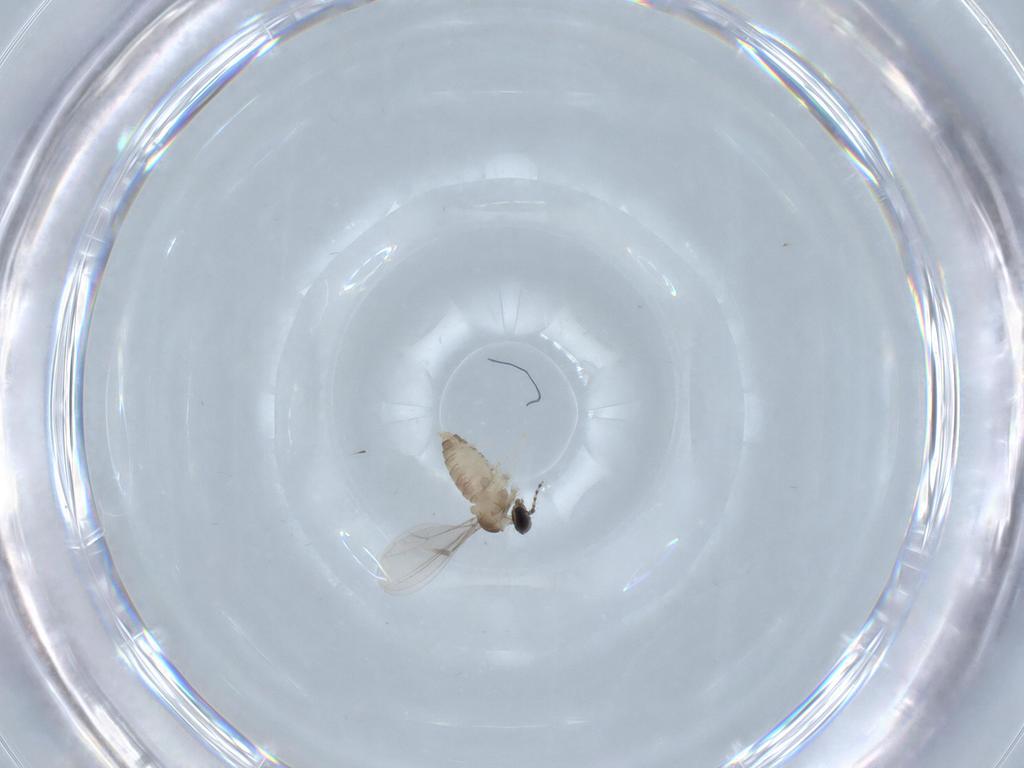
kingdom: Animalia
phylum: Arthropoda
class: Insecta
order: Diptera
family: Cecidomyiidae
